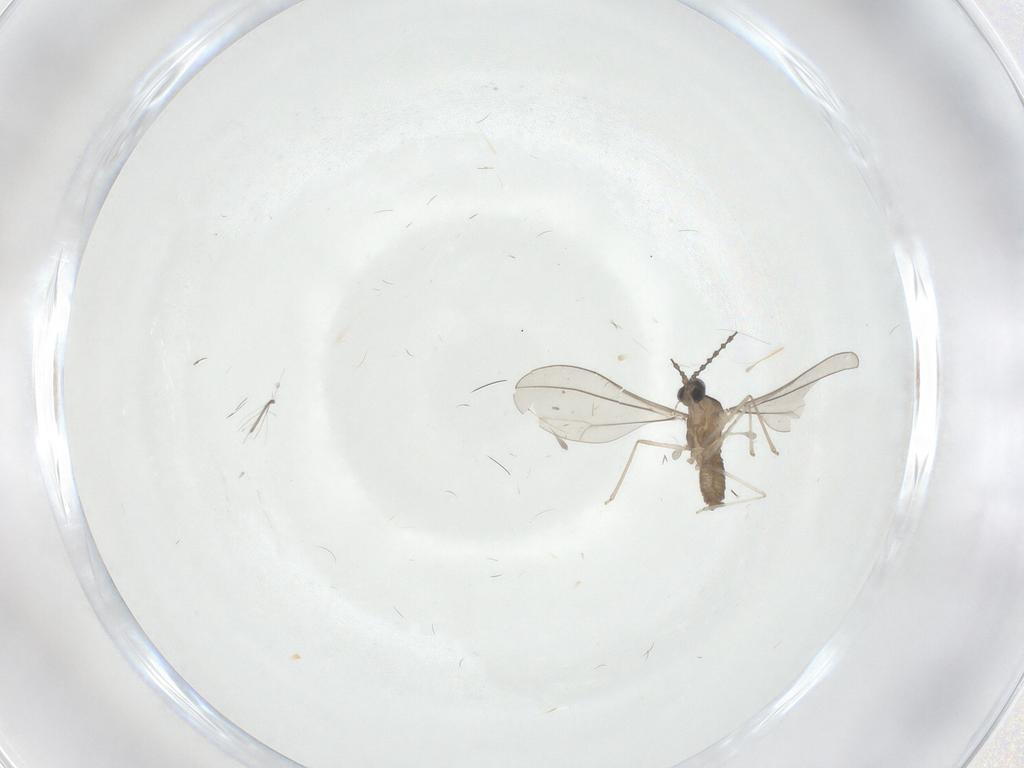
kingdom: Animalia
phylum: Arthropoda
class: Insecta
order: Diptera
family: Cecidomyiidae
